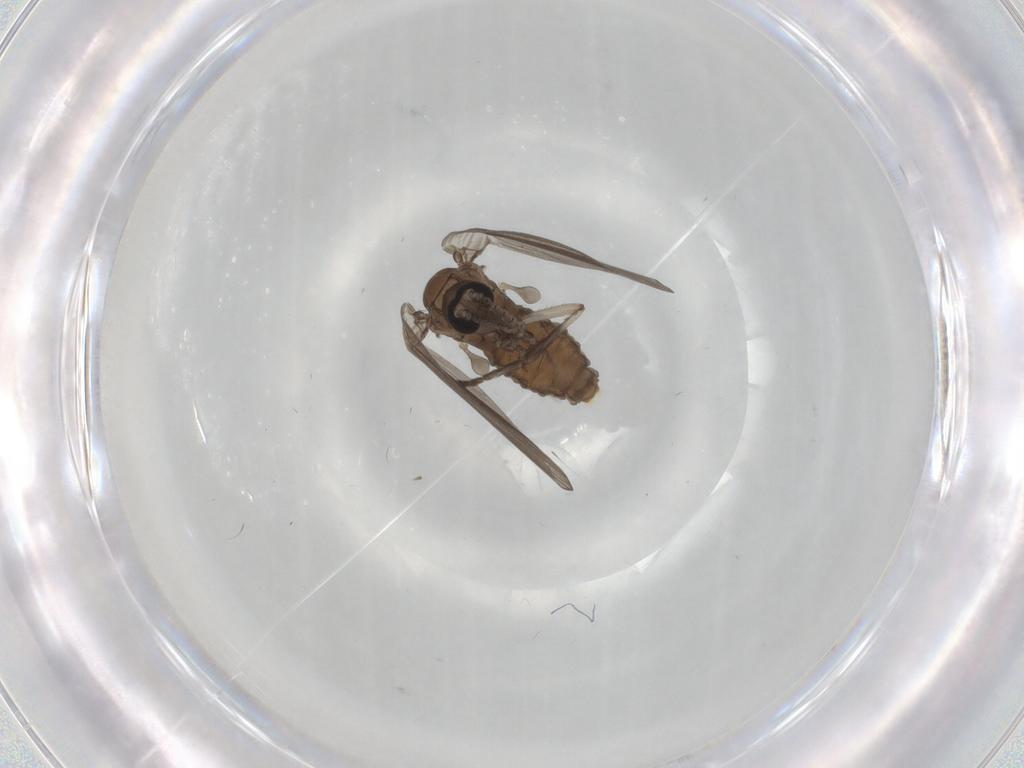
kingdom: Animalia
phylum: Arthropoda
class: Insecta
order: Diptera
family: Psychodidae
